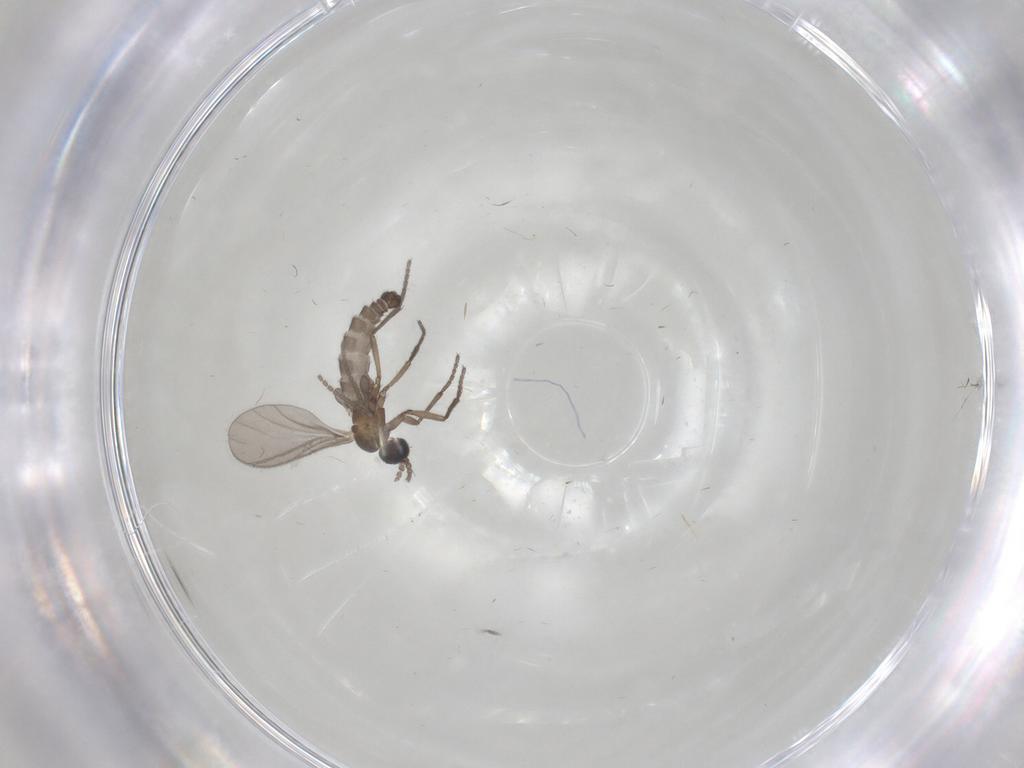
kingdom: Animalia
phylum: Arthropoda
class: Insecta
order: Diptera
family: Sciaridae
